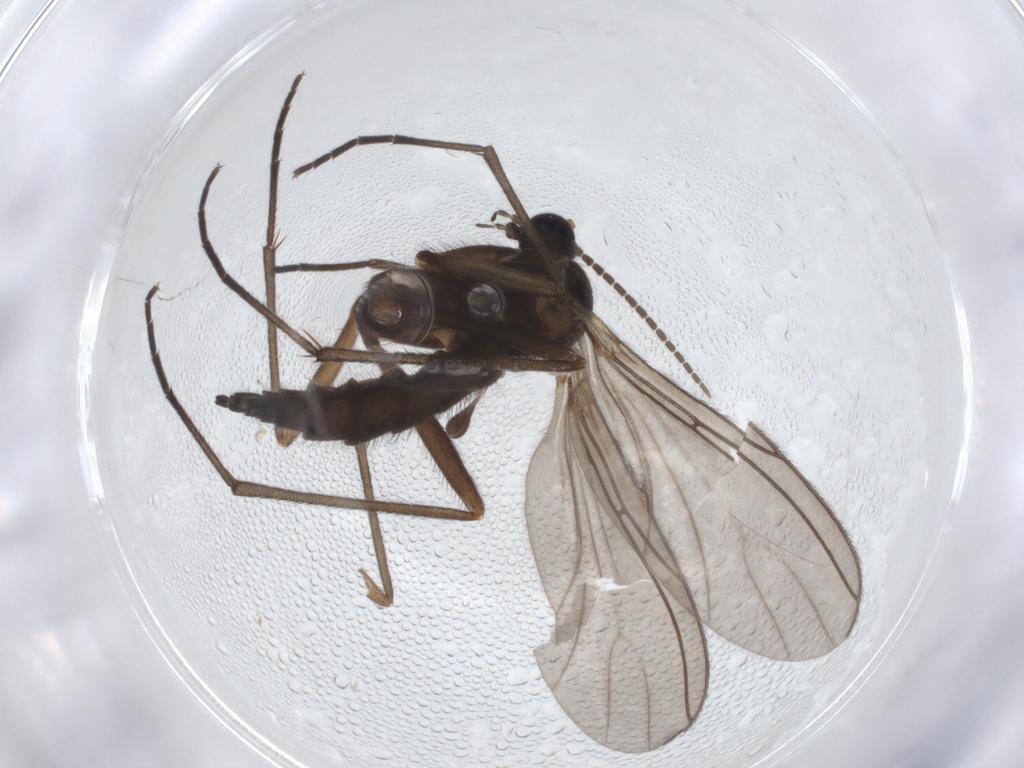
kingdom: Animalia
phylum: Arthropoda
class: Insecta
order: Diptera
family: Sciaridae
